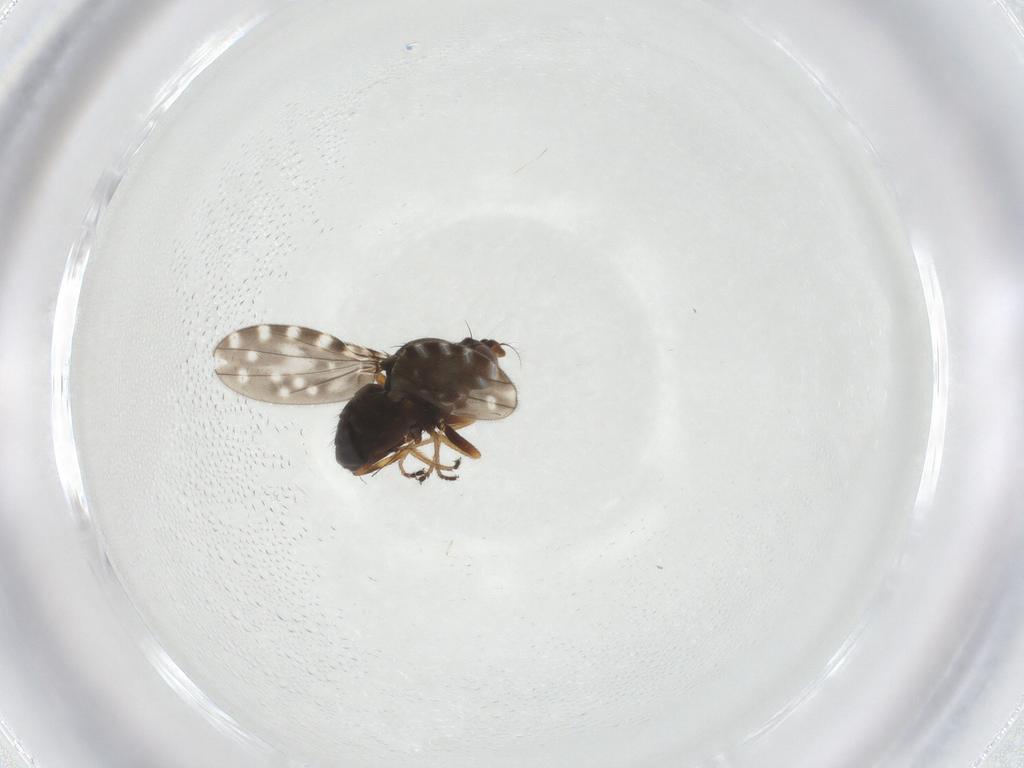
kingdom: Animalia
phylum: Arthropoda
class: Insecta
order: Diptera
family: Ephydridae
